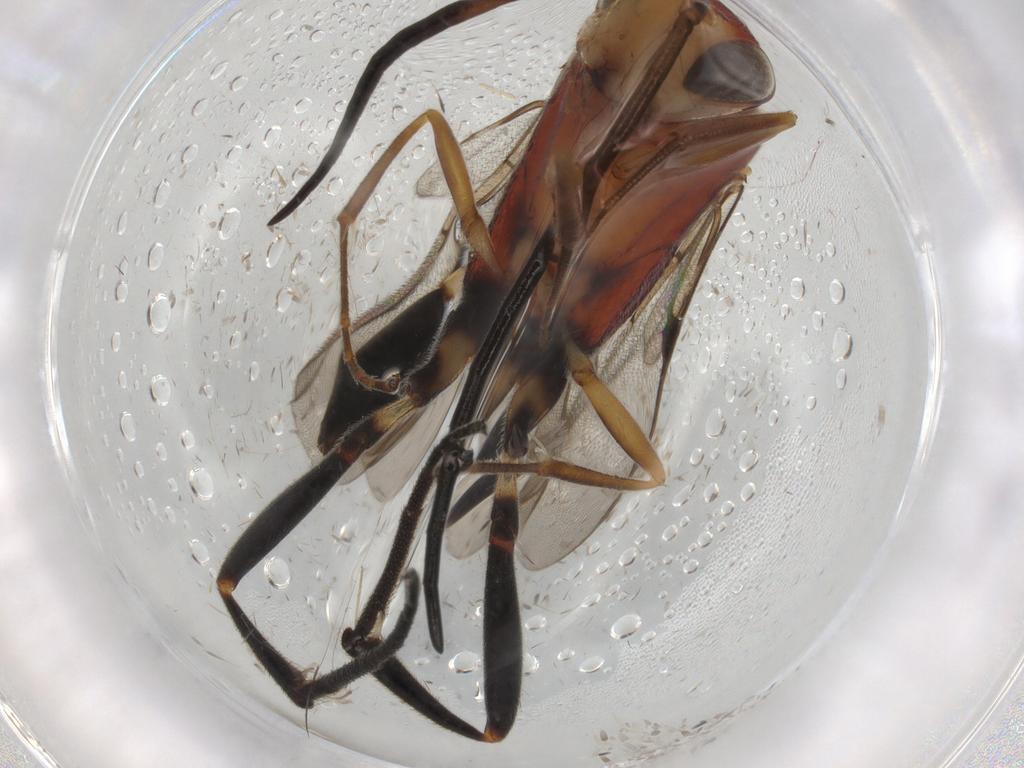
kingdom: Animalia
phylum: Arthropoda
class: Insecta
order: Hymenoptera
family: Evaniidae
